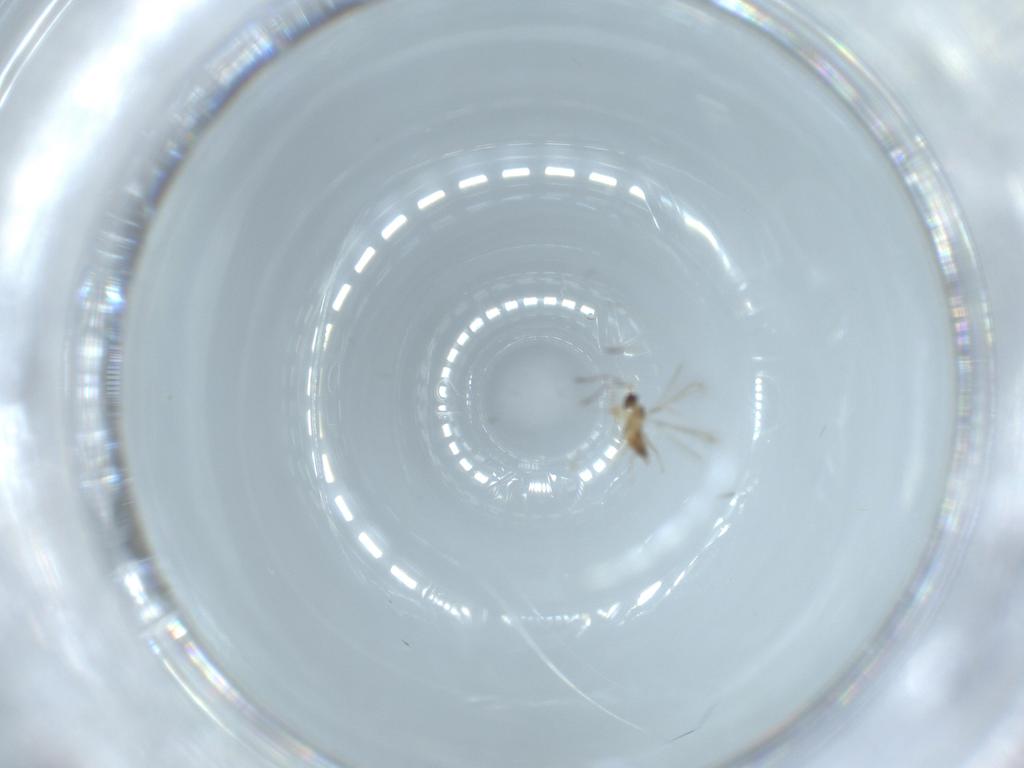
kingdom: Animalia
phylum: Arthropoda
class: Insecta
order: Hymenoptera
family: Mymaridae
